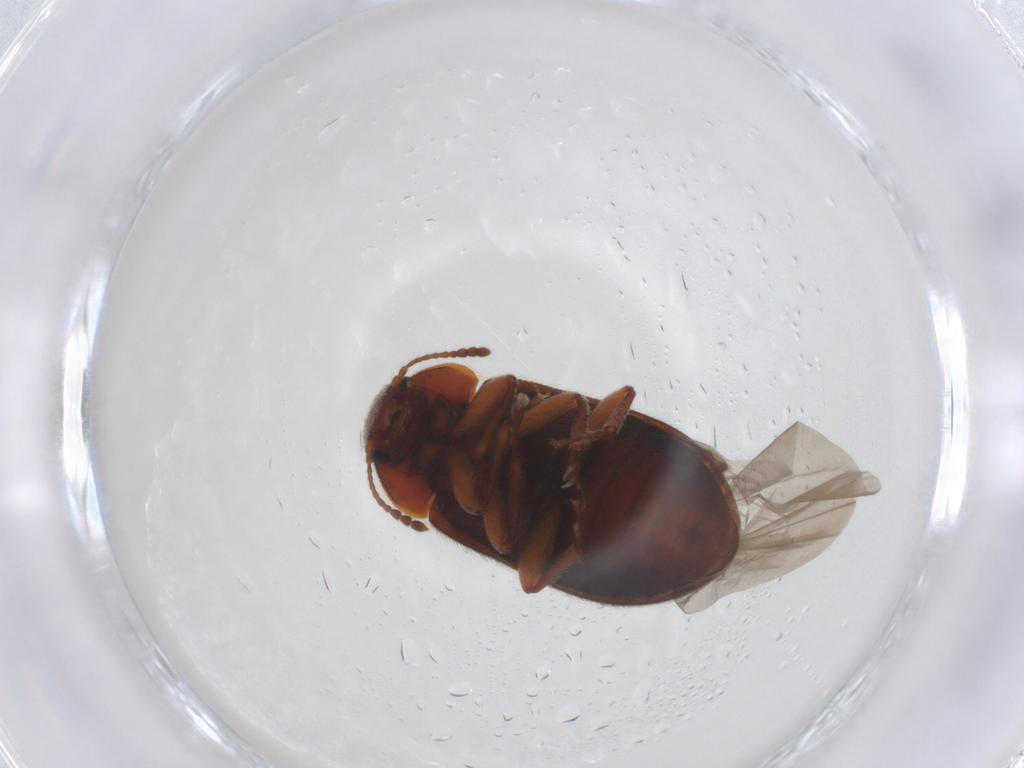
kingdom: Animalia
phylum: Arthropoda
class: Insecta
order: Coleoptera
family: Byturidae
